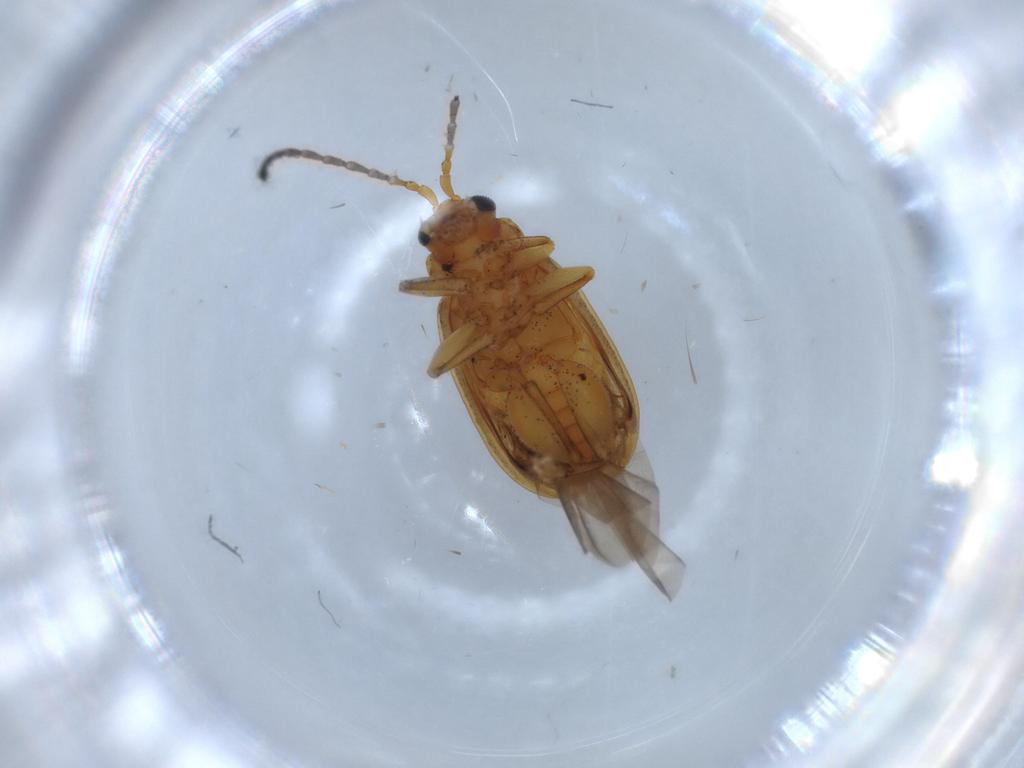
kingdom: Animalia
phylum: Arthropoda
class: Insecta
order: Coleoptera
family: Chrysomelidae
